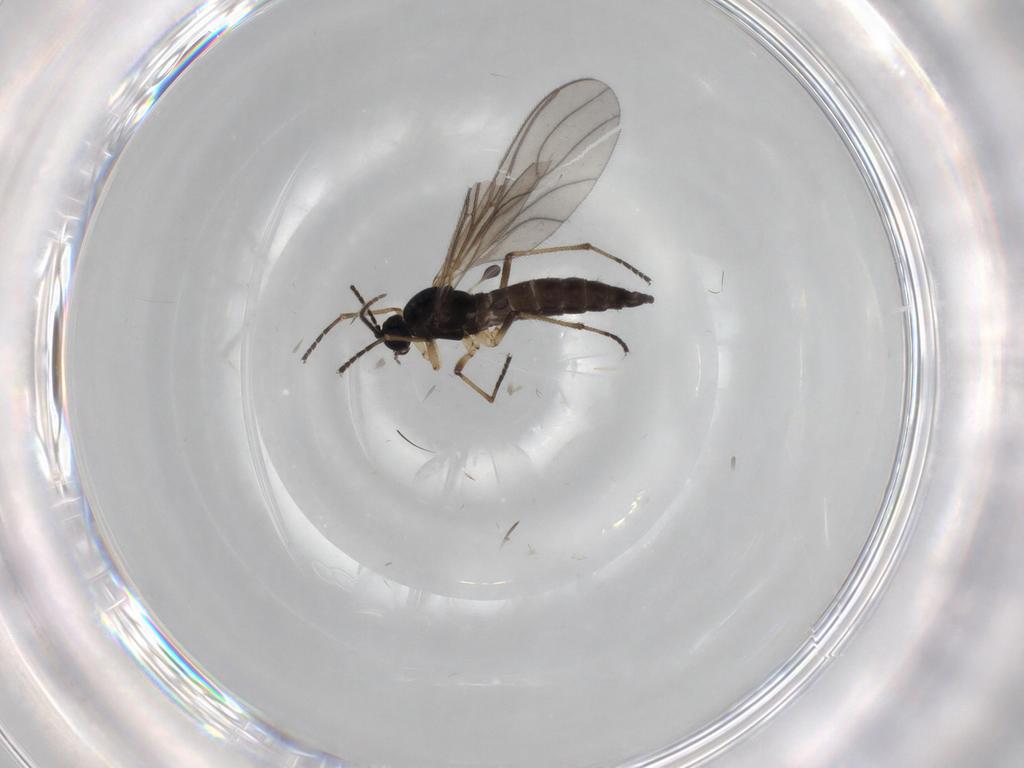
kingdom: Animalia
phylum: Arthropoda
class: Insecta
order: Diptera
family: Sciaridae
